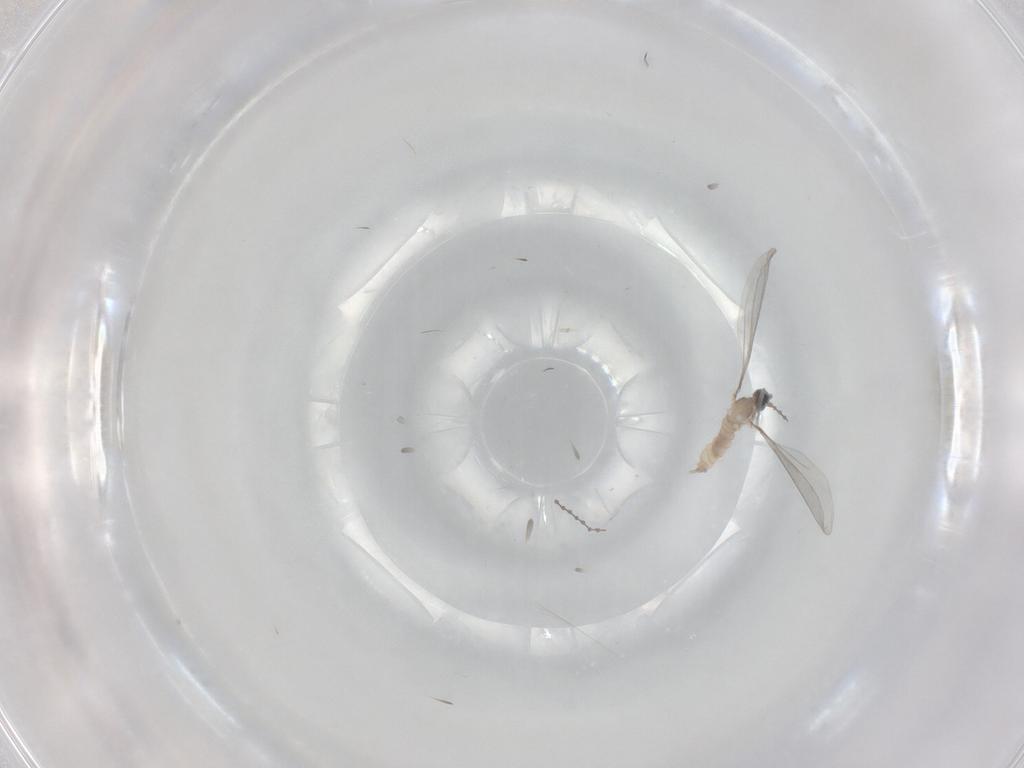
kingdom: Animalia
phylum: Arthropoda
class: Insecta
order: Diptera
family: Cecidomyiidae
